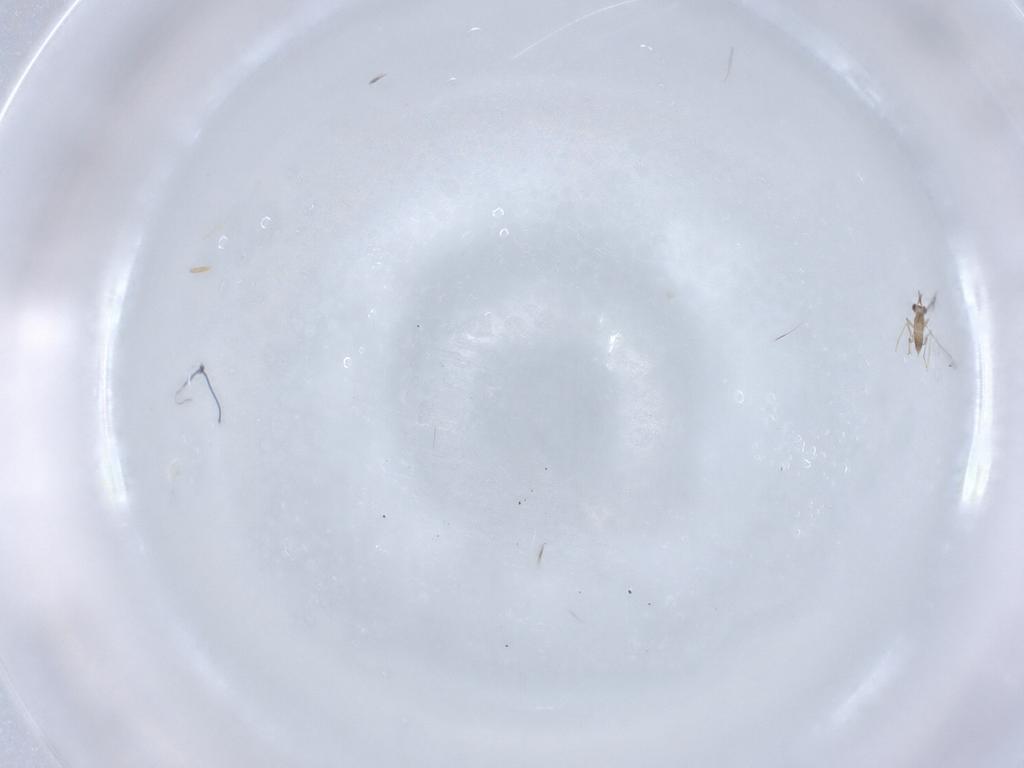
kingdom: Animalia
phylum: Arthropoda
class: Insecta
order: Hymenoptera
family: Mymaridae
